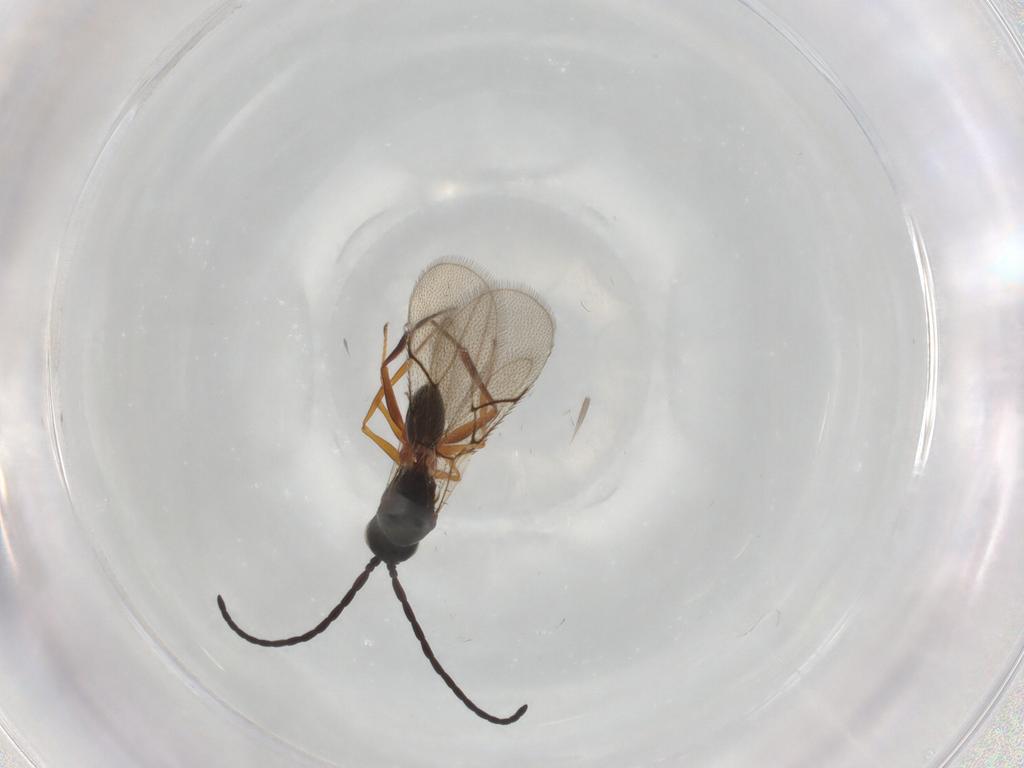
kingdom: Animalia
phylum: Arthropoda
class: Insecta
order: Hymenoptera
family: Figitidae
